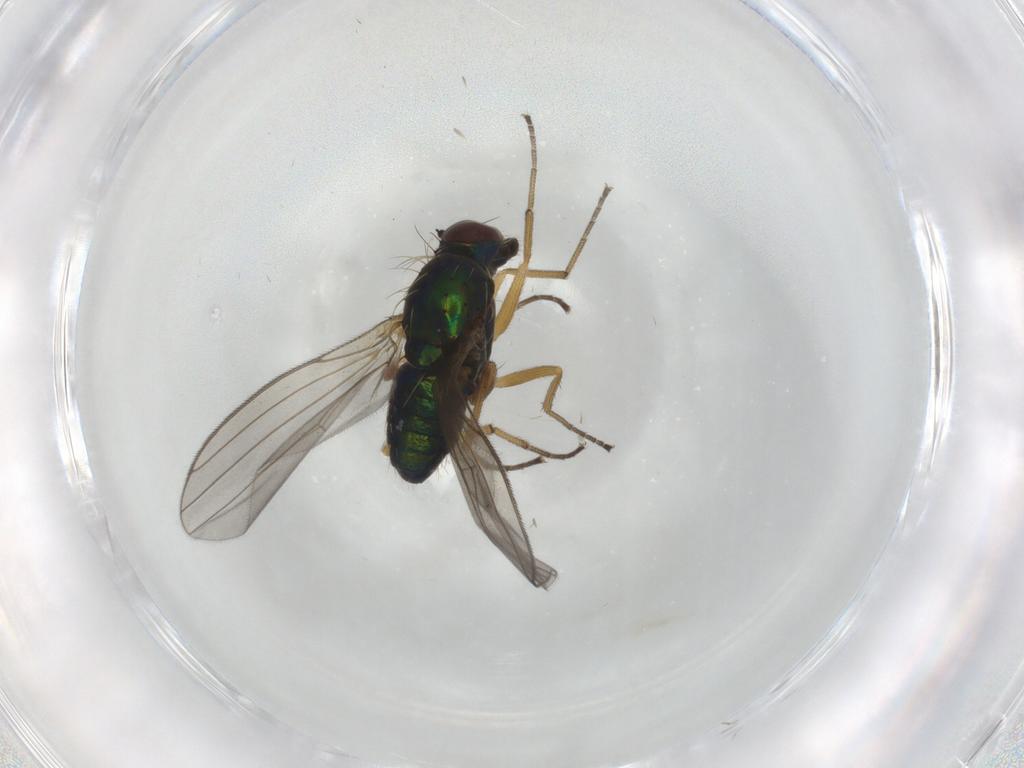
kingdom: Animalia
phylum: Arthropoda
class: Insecta
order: Diptera
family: Dolichopodidae
